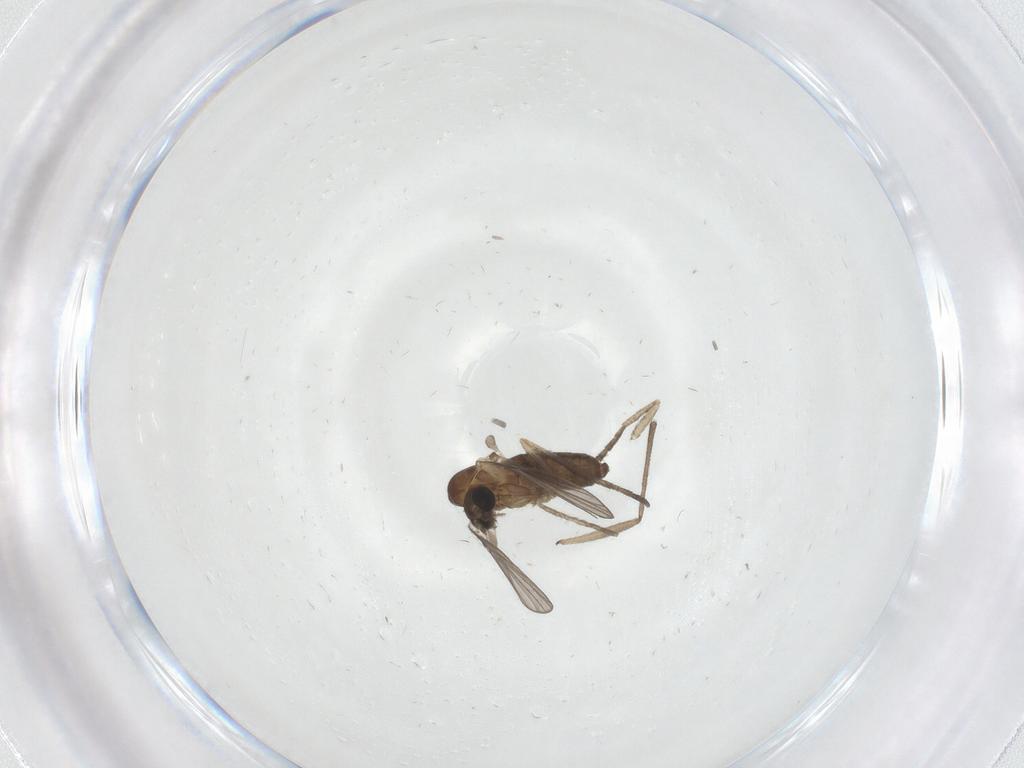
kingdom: Animalia
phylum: Arthropoda
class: Insecta
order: Diptera
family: Sciaridae
